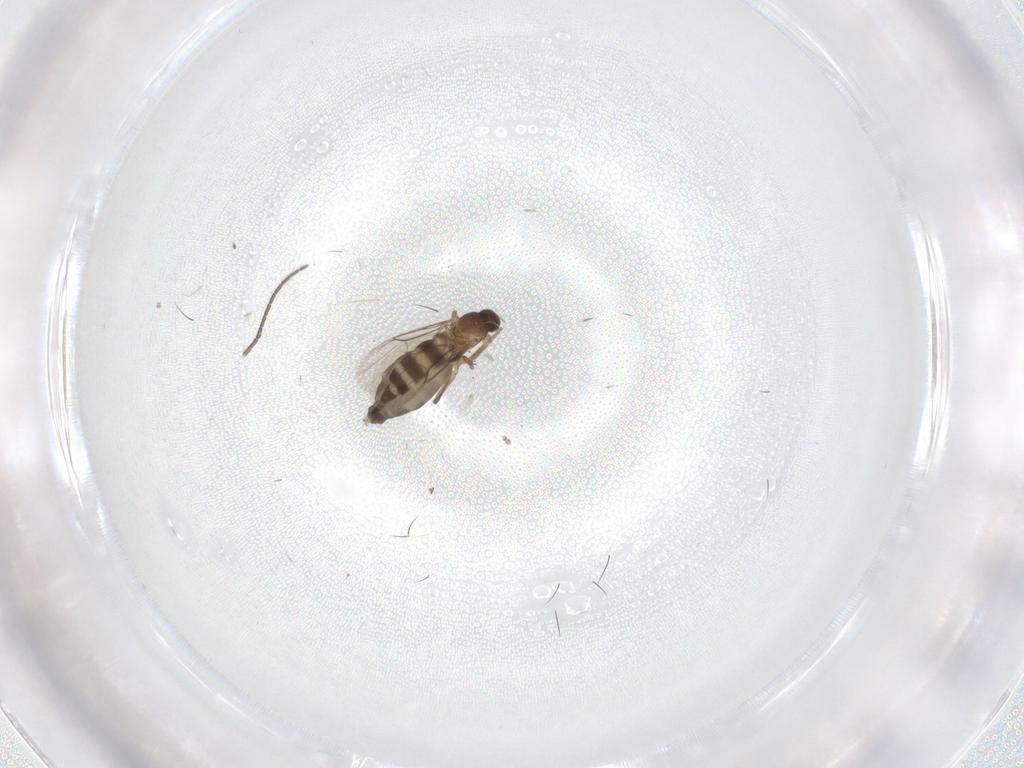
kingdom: Animalia
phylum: Arthropoda
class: Insecta
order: Diptera
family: Phoridae
